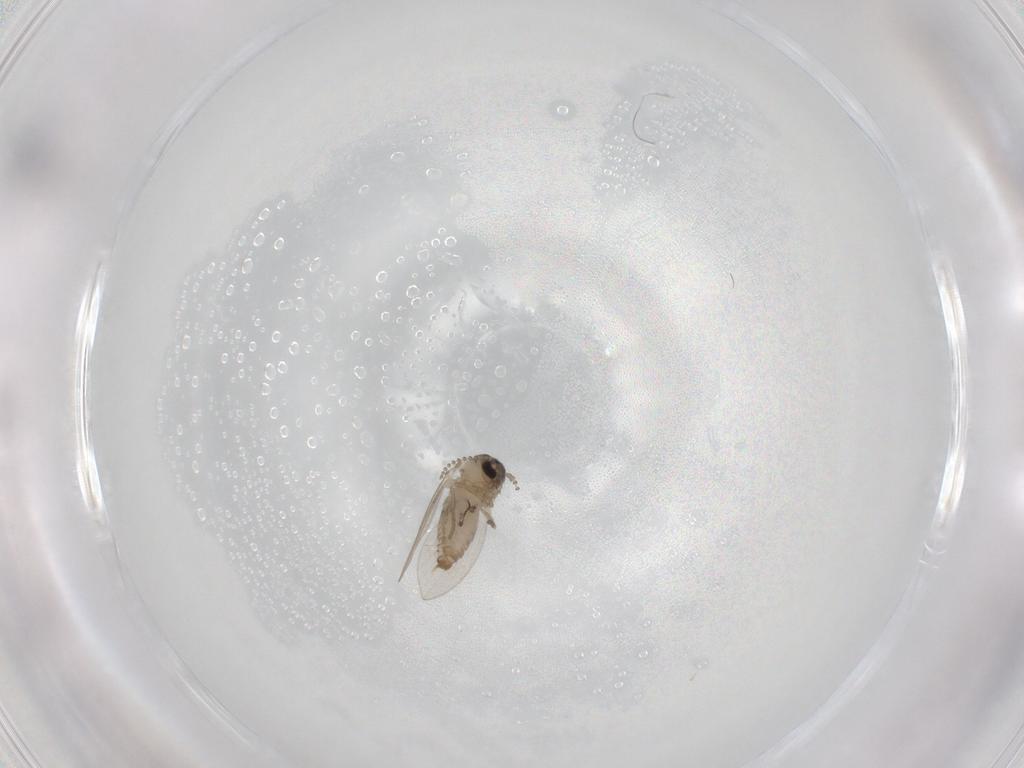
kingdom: Animalia
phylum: Arthropoda
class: Insecta
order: Diptera
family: Psychodidae
